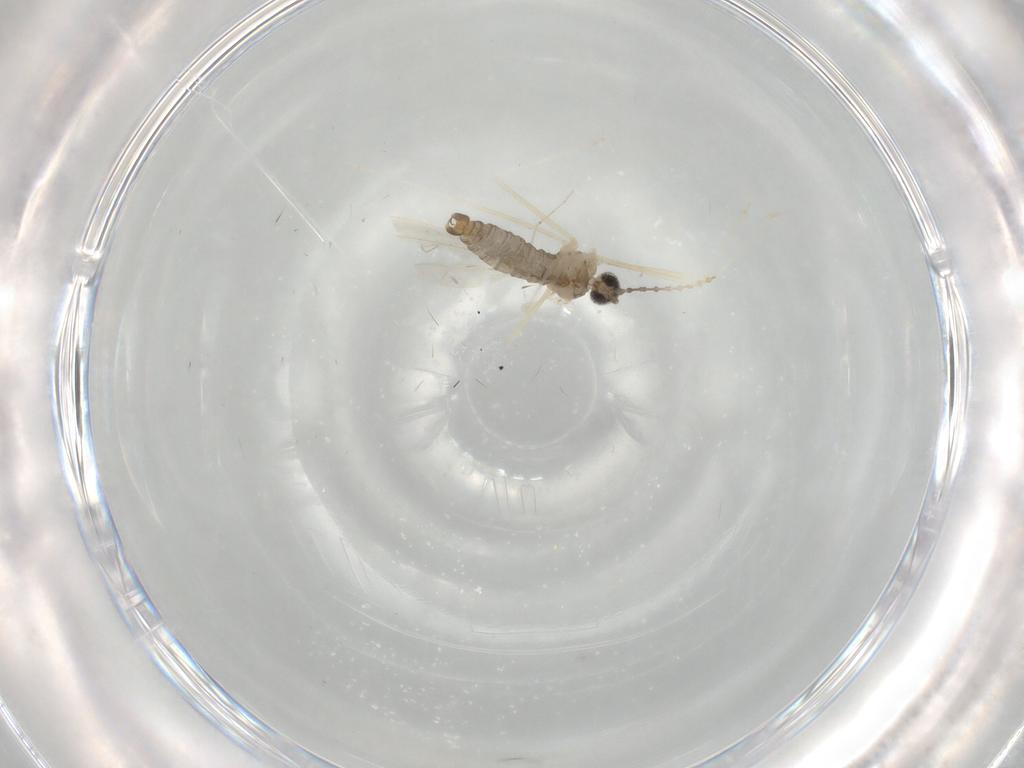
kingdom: Animalia
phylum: Arthropoda
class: Insecta
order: Diptera
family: Cecidomyiidae
